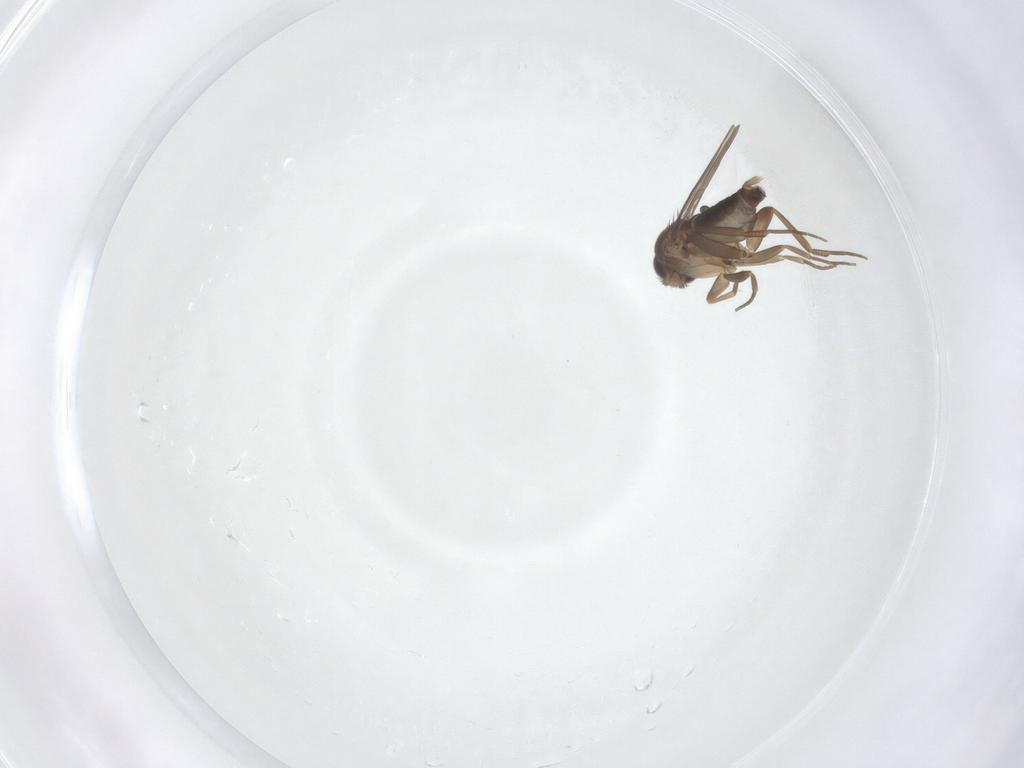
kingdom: Animalia
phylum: Arthropoda
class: Insecta
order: Diptera
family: Phoridae
